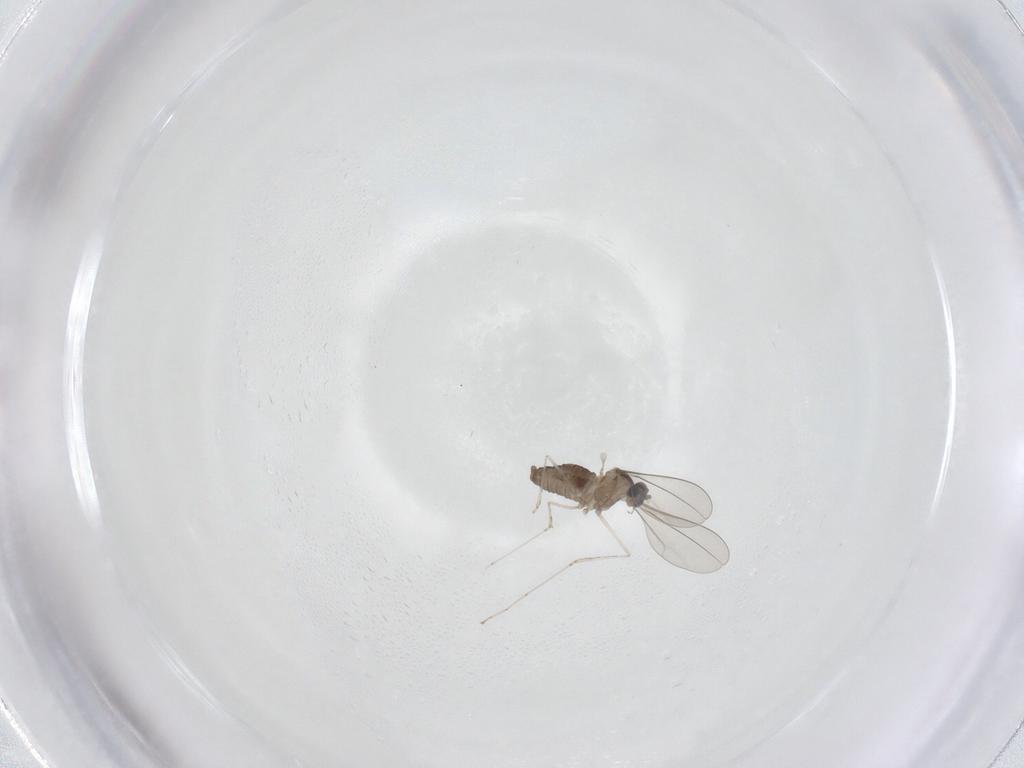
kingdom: Animalia
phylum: Arthropoda
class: Insecta
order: Diptera
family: Cecidomyiidae
